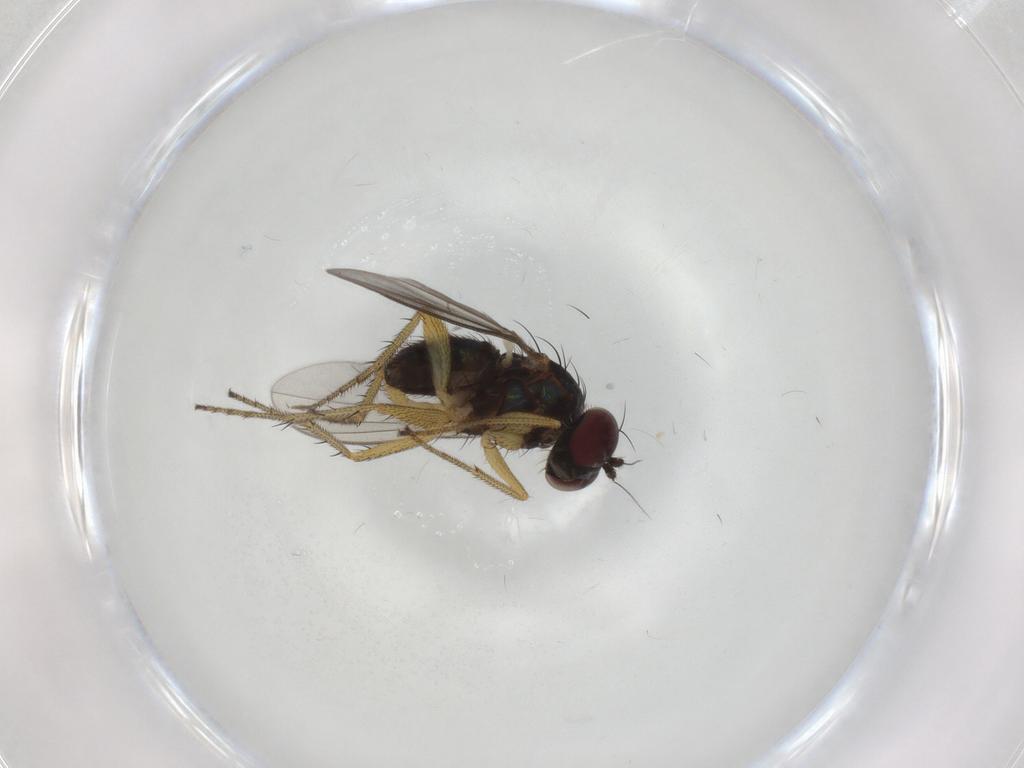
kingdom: Animalia
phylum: Arthropoda
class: Insecta
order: Diptera
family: Dolichopodidae
